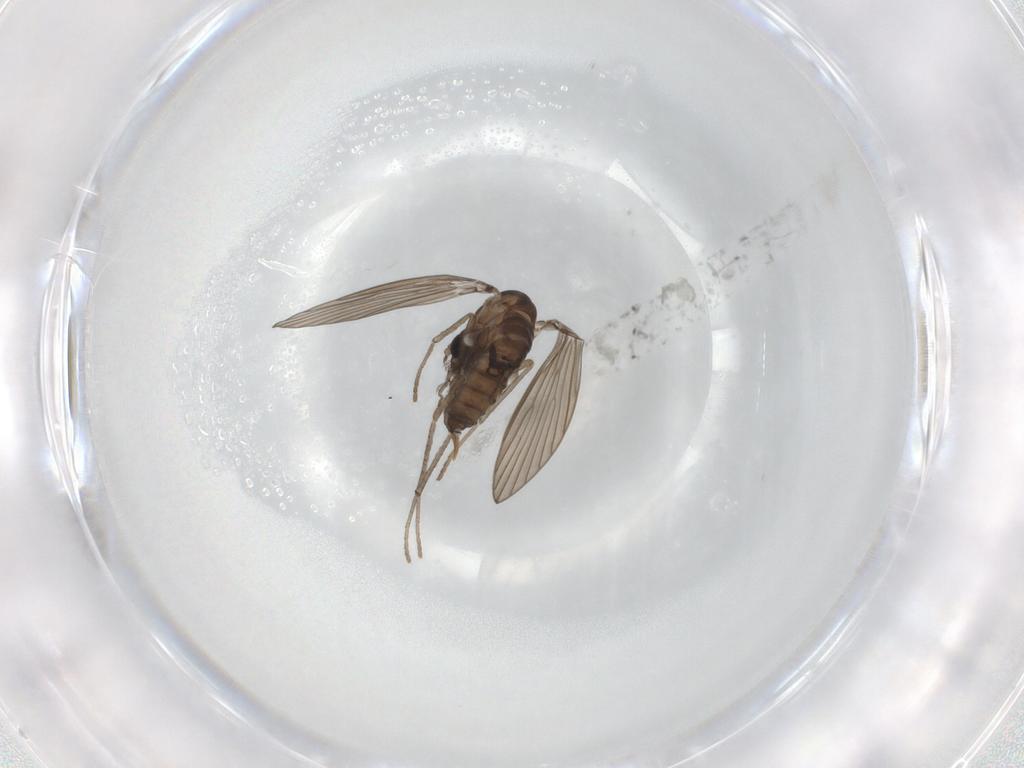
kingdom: Animalia
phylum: Arthropoda
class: Insecta
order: Diptera
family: Psychodidae
